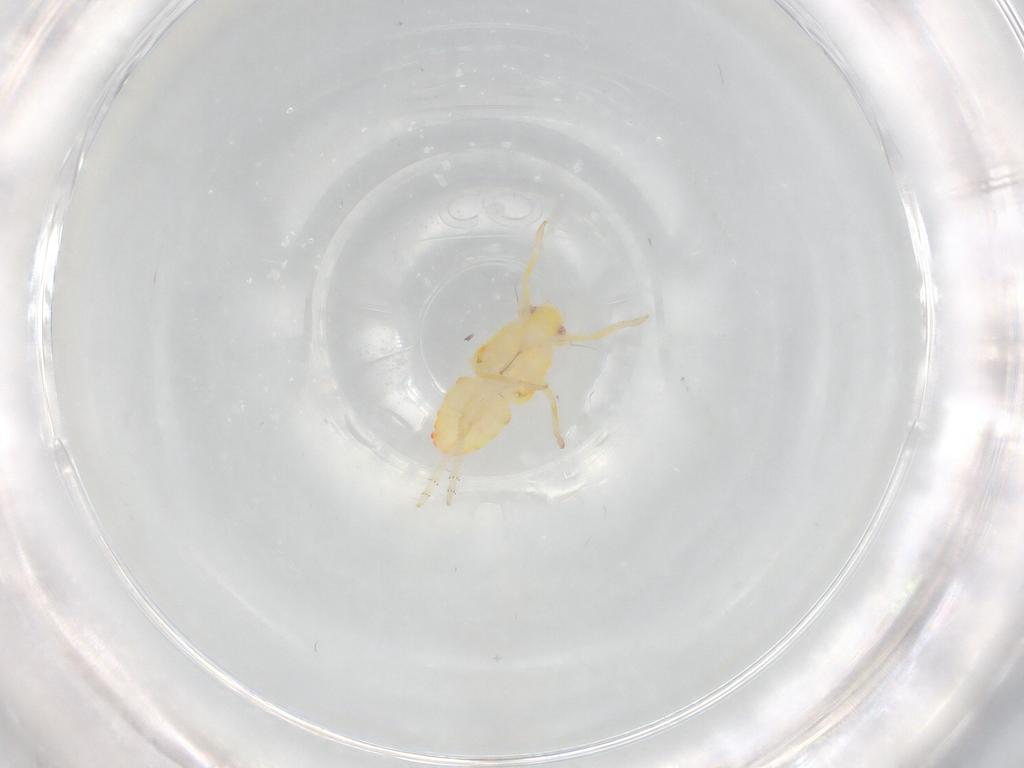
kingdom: Animalia
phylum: Arthropoda
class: Insecta
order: Hemiptera
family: Tropiduchidae
